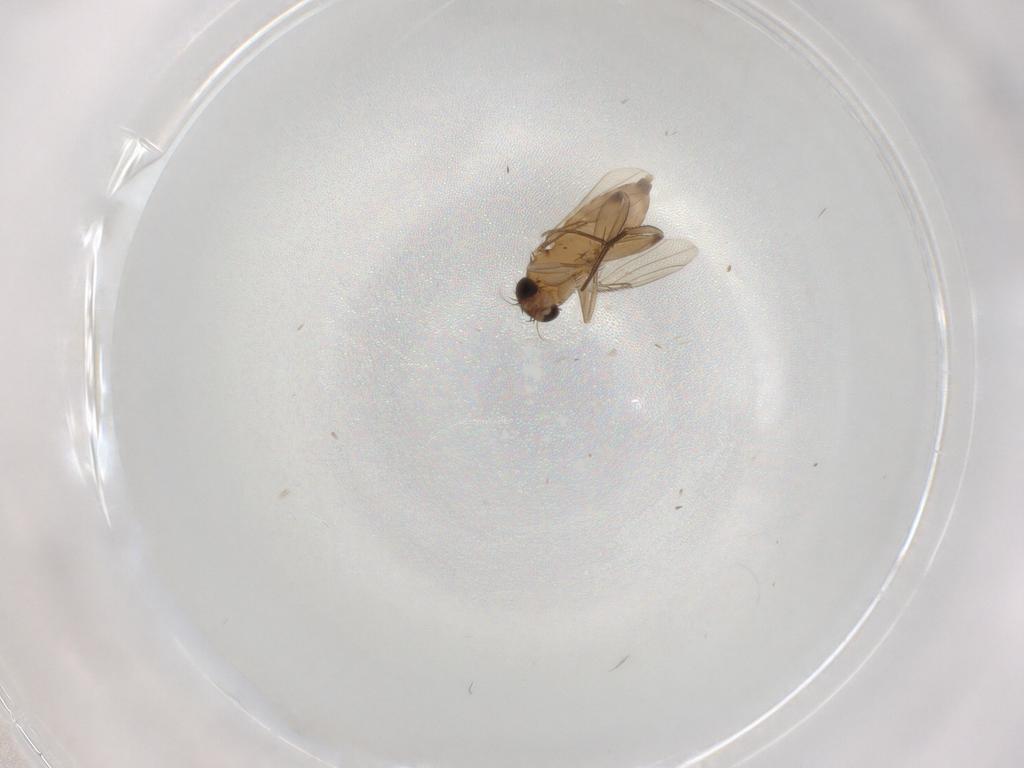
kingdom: Animalia
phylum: Arthropoda
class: Insecta
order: Diptera
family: Phoridae
